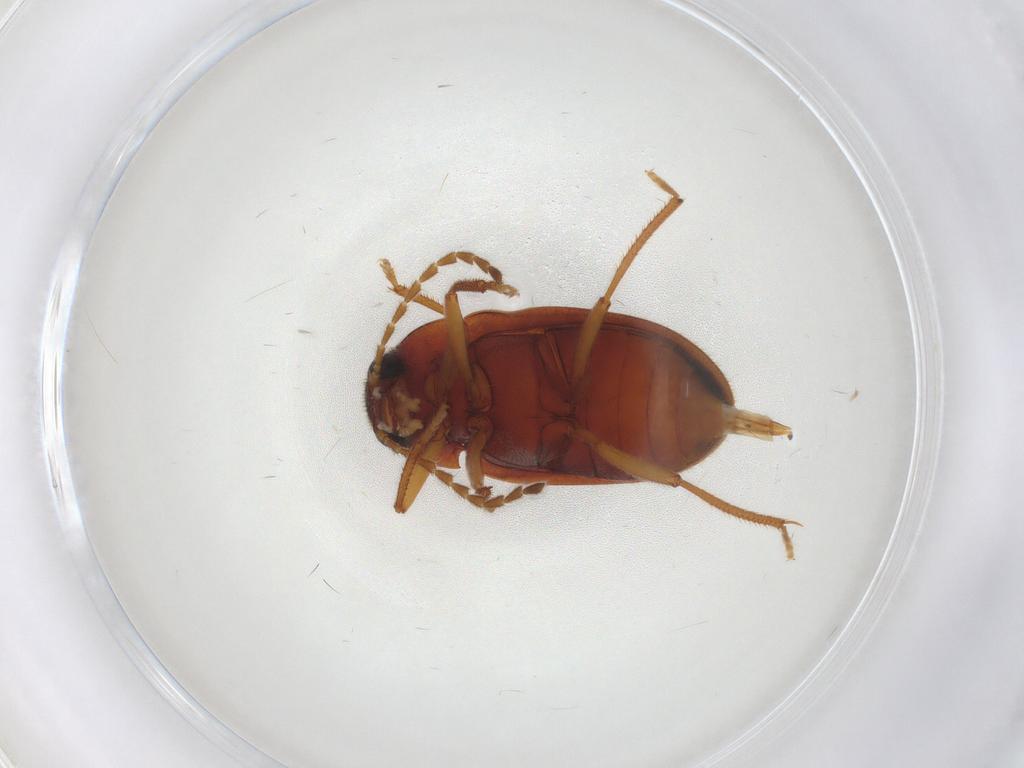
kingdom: Animalia
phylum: Arthropoda
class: Insecta
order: Coleoptera
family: Ptilodactylidae
